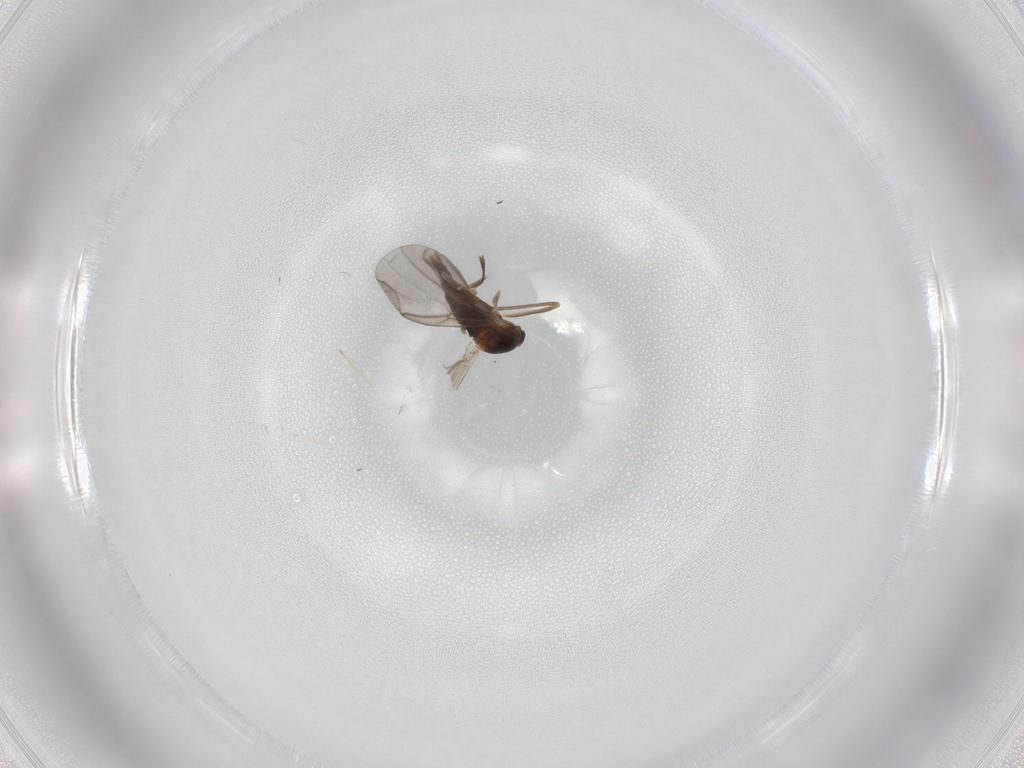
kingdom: Animalia
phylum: Arthropoda
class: Insecta
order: Diptera
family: Cecidomyiidae
